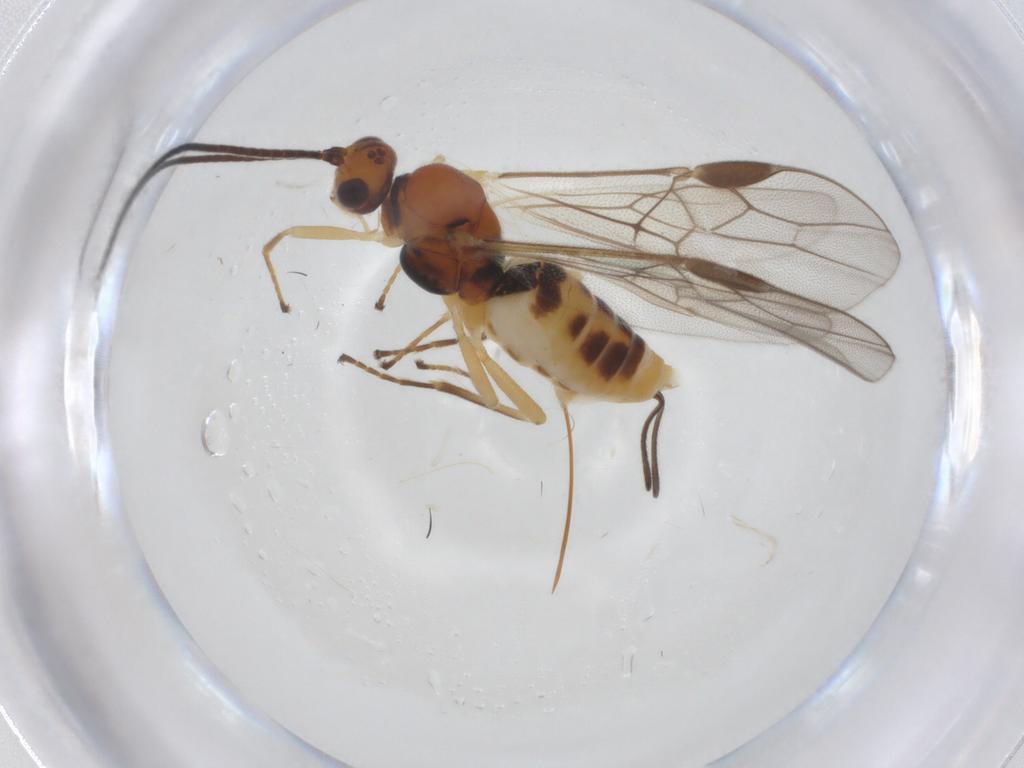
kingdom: Animalia
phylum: Arthropoda
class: Insecta
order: Hymenoptera
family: Braconidae
